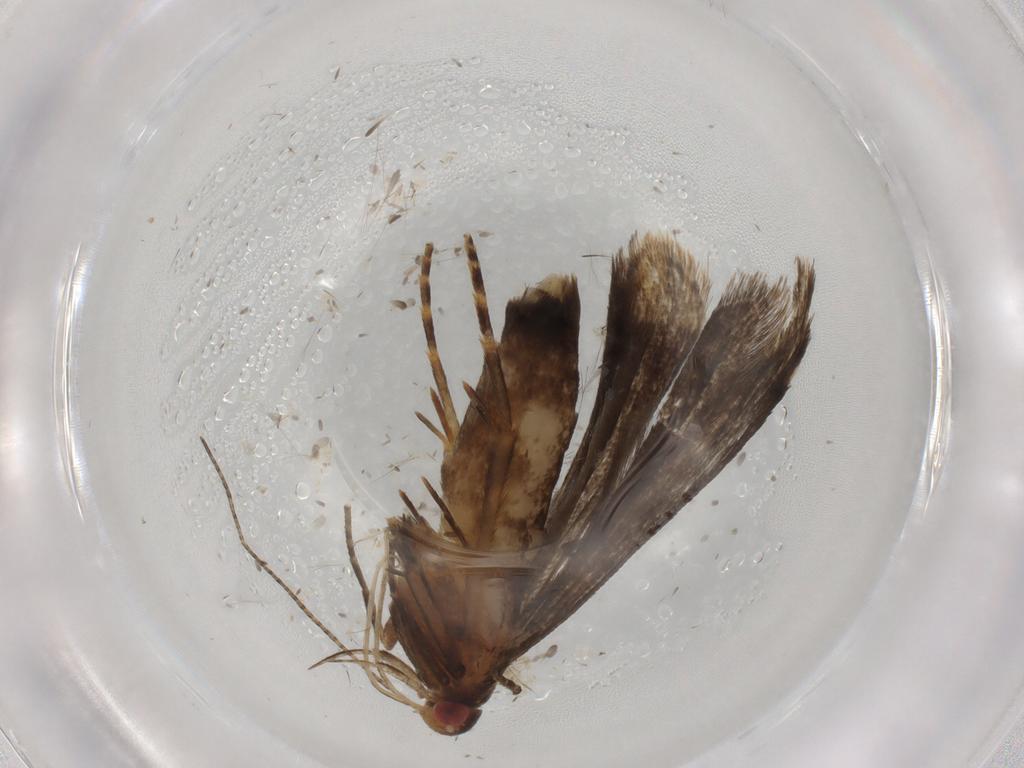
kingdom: Animalia
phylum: Arthropoda
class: Insecta
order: Lepidoptera
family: Gelechiidae
